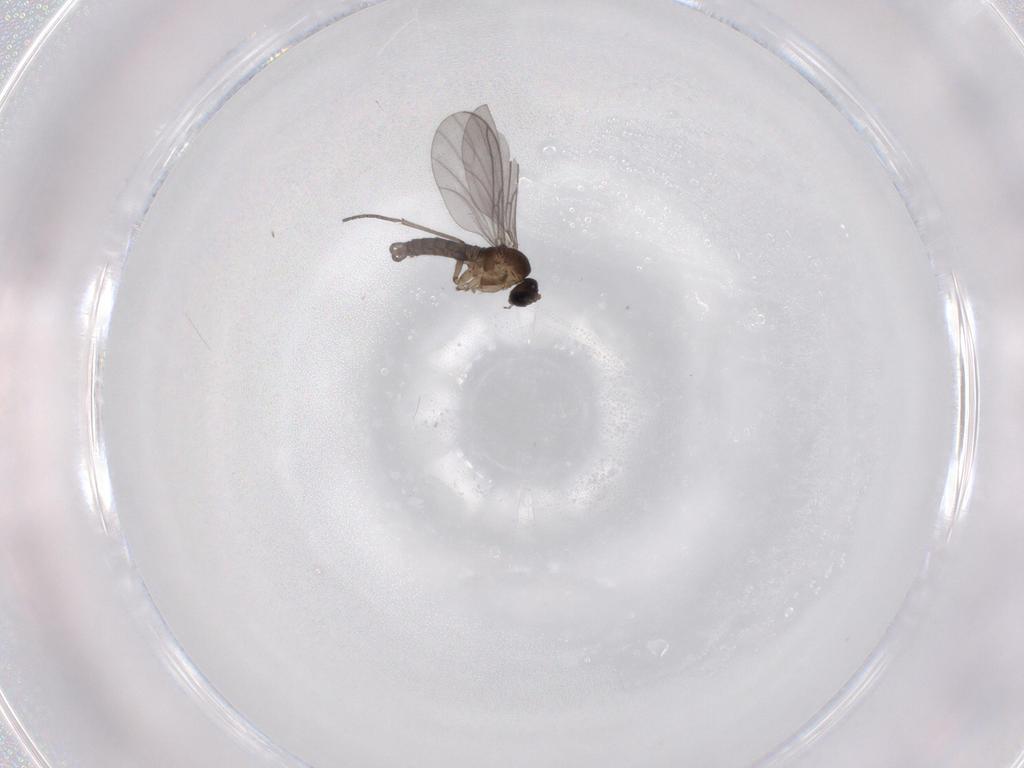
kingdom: Animalia
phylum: Arthropoda
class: Insecta
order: Diptera
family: Sciaridae
